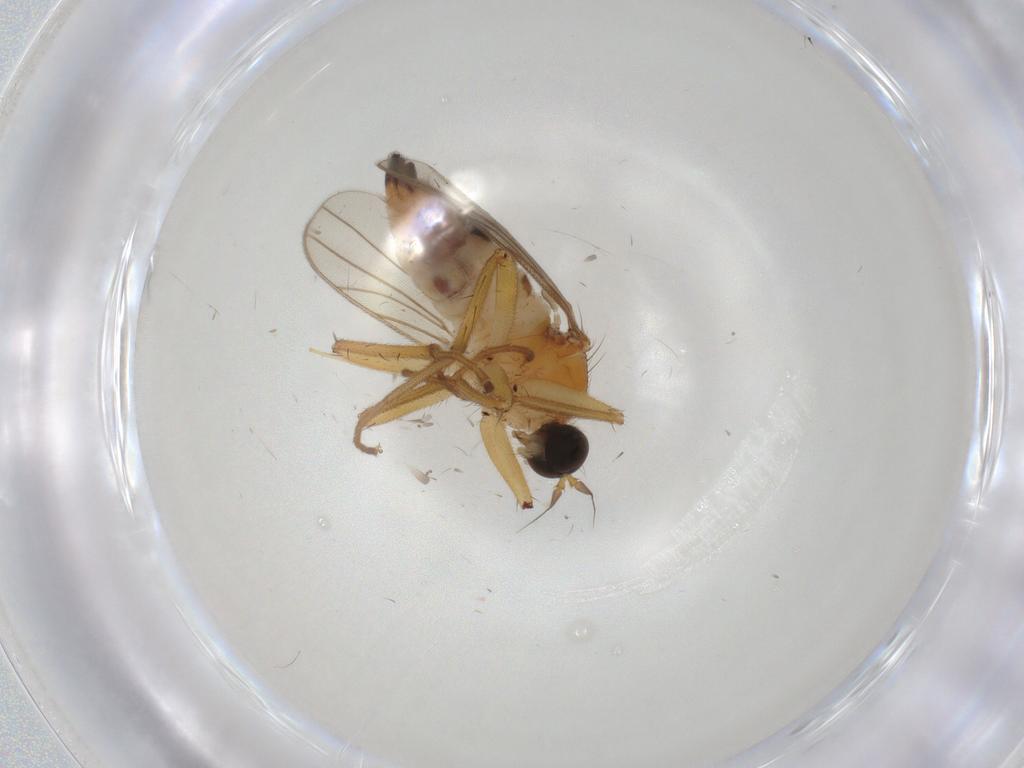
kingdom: Animalia
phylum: Arthropoda
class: Insecta
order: Diptera
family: Hybotidae
